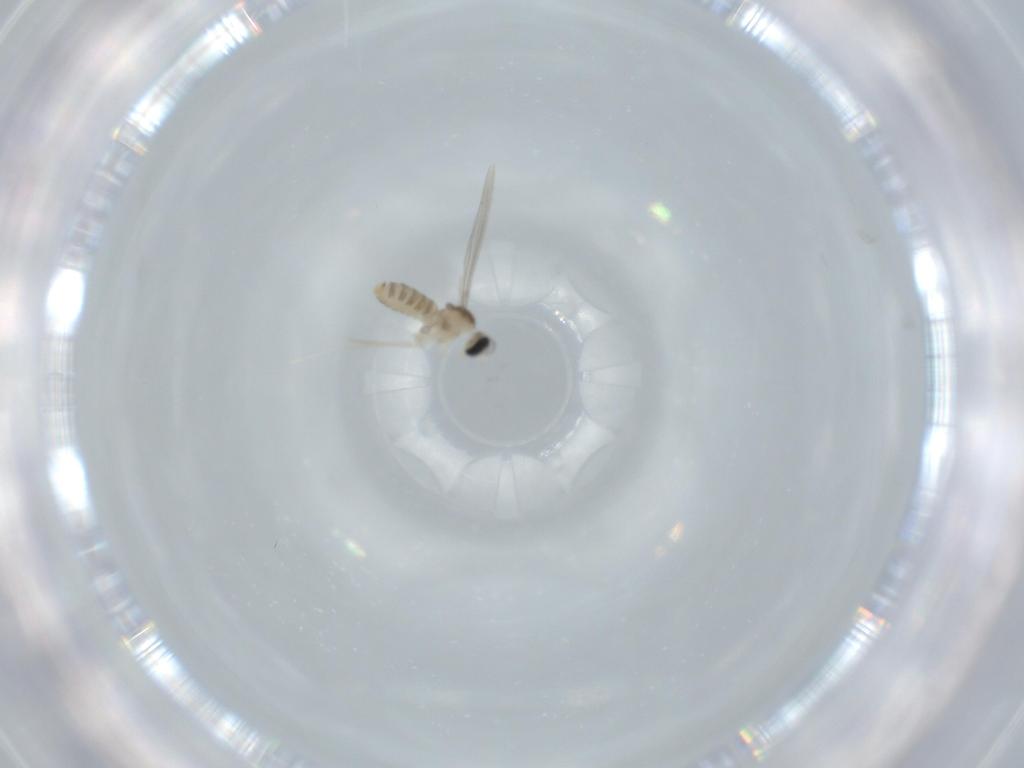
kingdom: Animalia
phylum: Arthropoda
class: Insecta
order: Diptera
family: Cecidomyiidae
